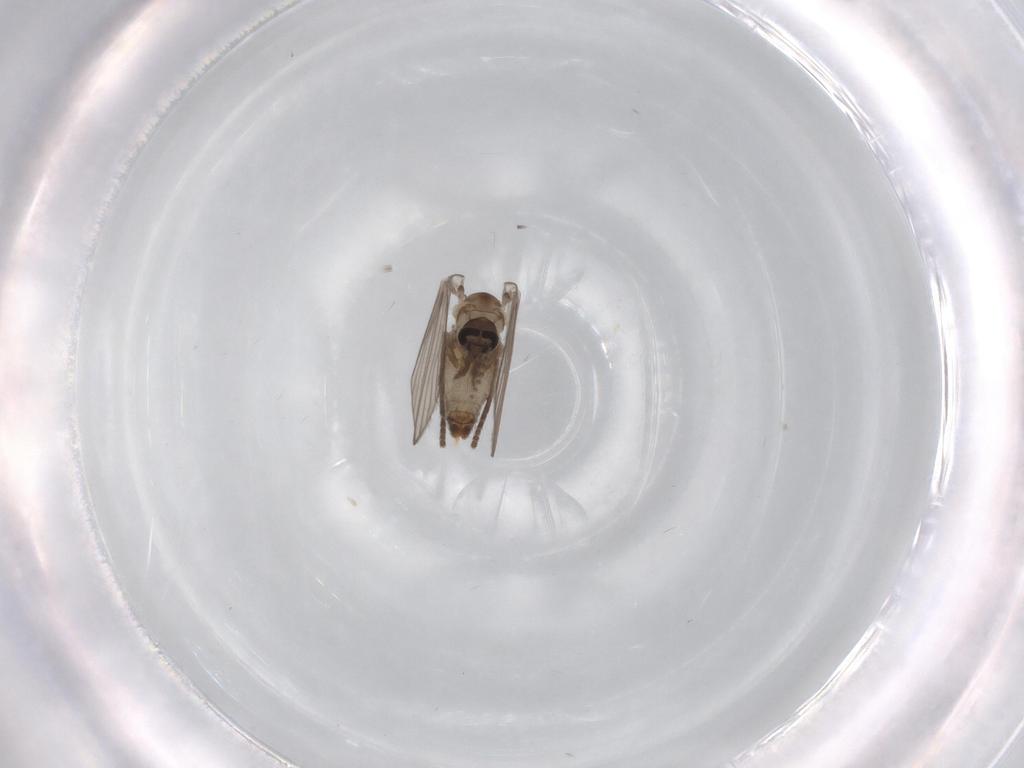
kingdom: Animalia
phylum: Arthropoda
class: Insecta
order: Diptera
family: Psychodidae
